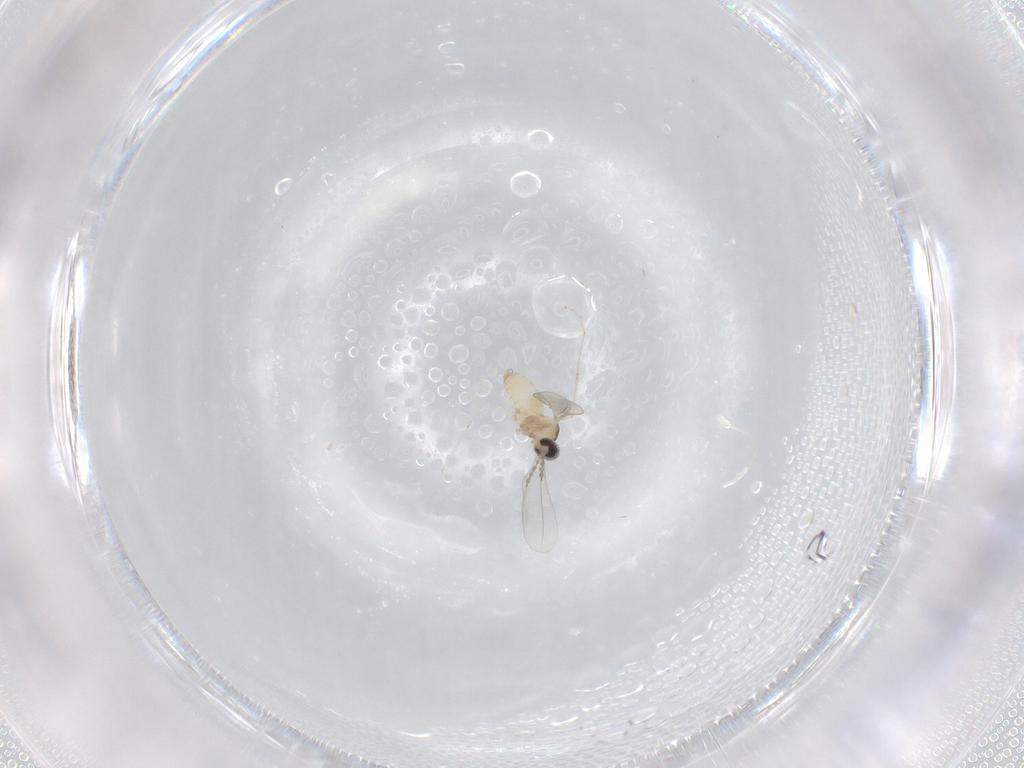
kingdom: Animalia
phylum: Arthropoda
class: Insecta
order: Diptera
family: Cecidomyiidae
